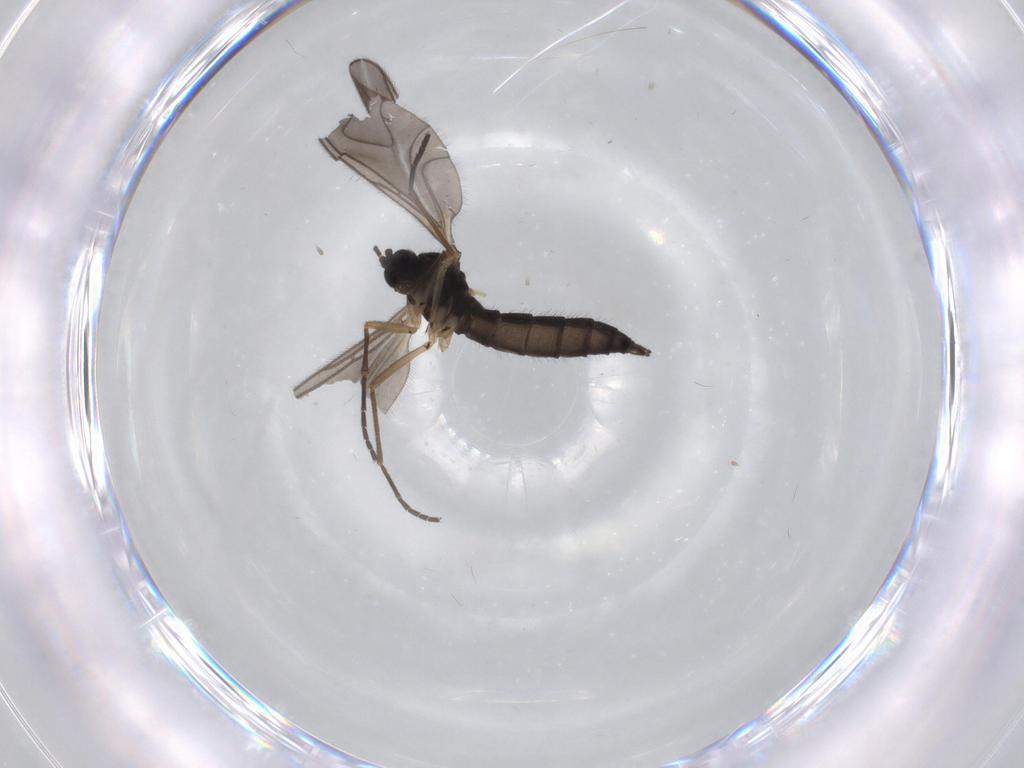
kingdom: Animalia
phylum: Arthropoda
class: Insecta
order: Diptera
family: Sciaridae
